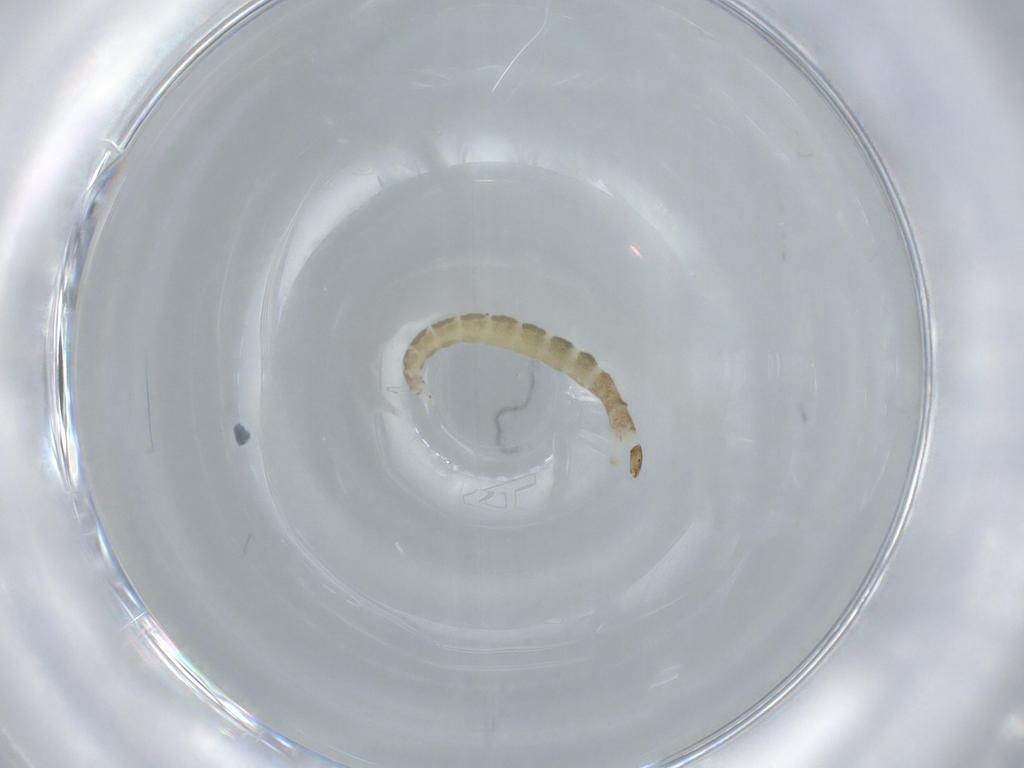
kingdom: Animalia
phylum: Arthropoda
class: Insecta
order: Diptera
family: Chironomidae
